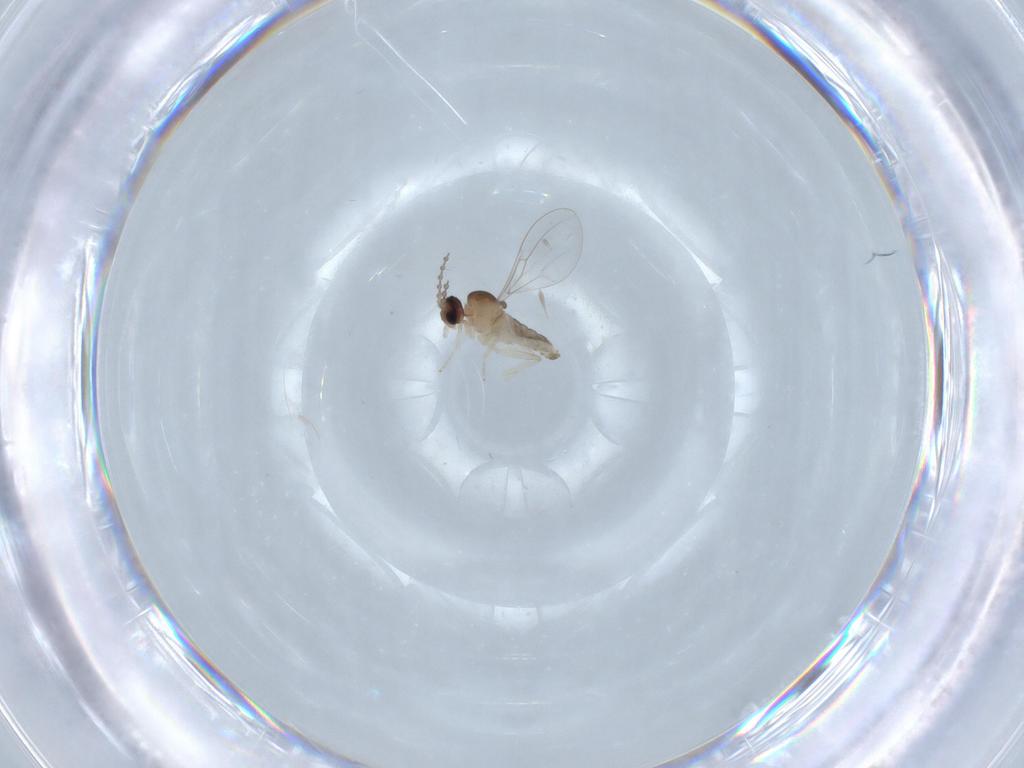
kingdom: Animalia
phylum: Arthropoda
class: Insecta
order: Diptera
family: Cecidomyiidae
